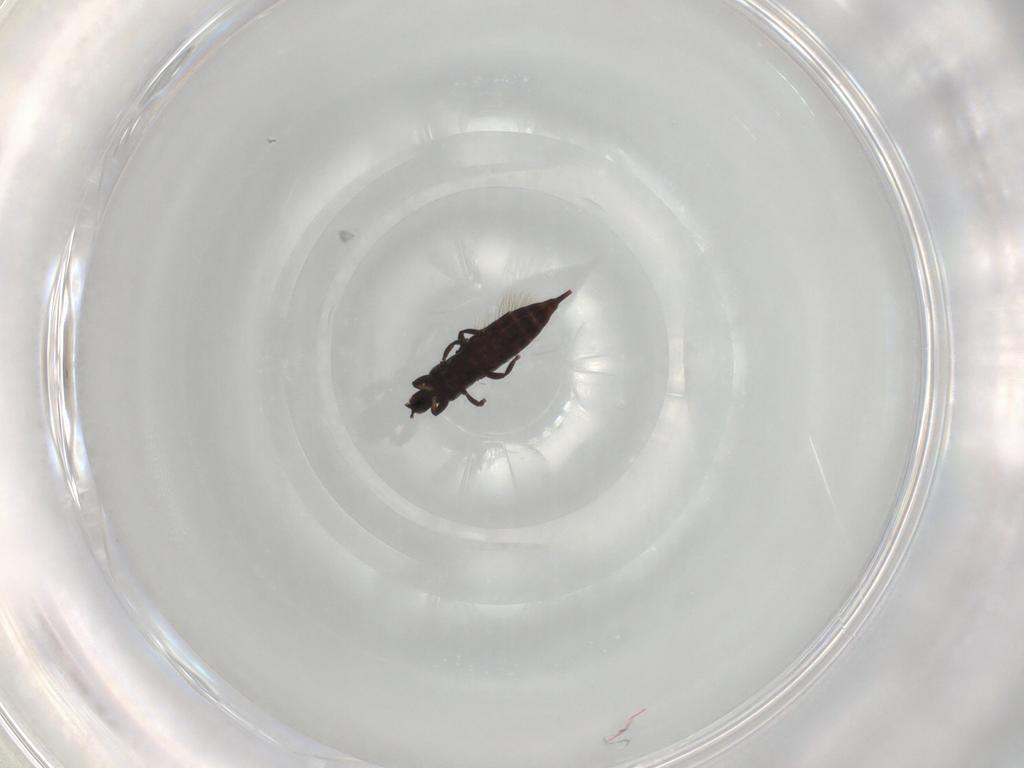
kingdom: Animalia
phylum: Arthropoda
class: Insecta
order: Thysanoptera
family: Phlaeothripidae
